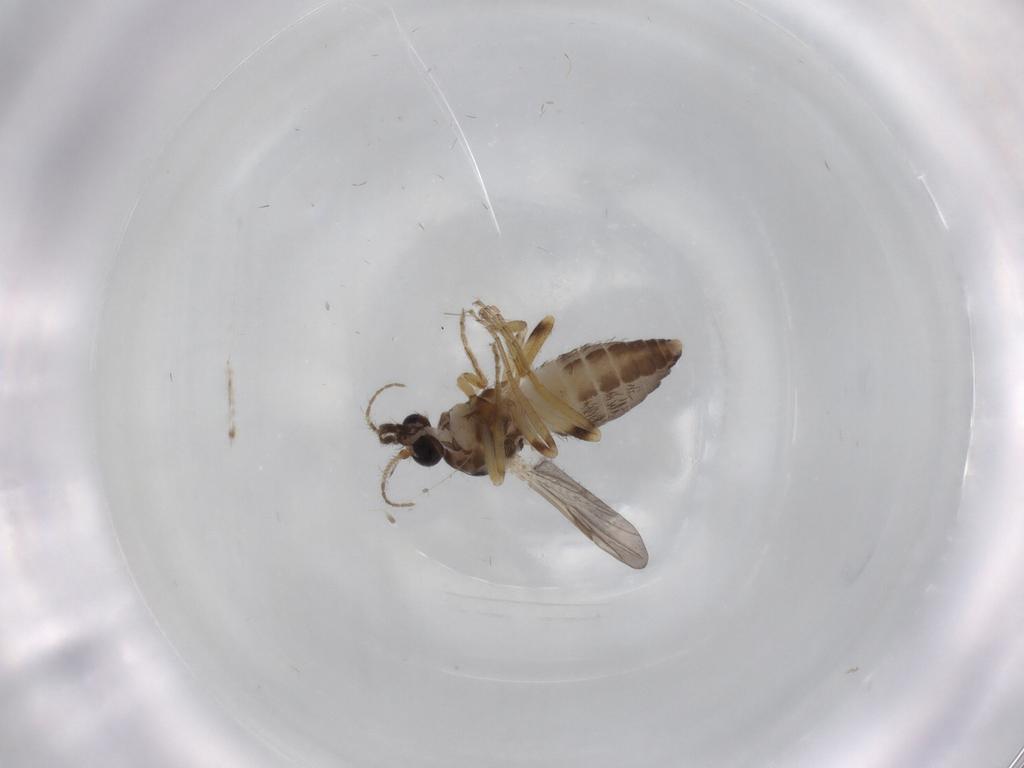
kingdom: Animalia
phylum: Arthropoda
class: Insecta
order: Diptera
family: Ceratopogonidae
